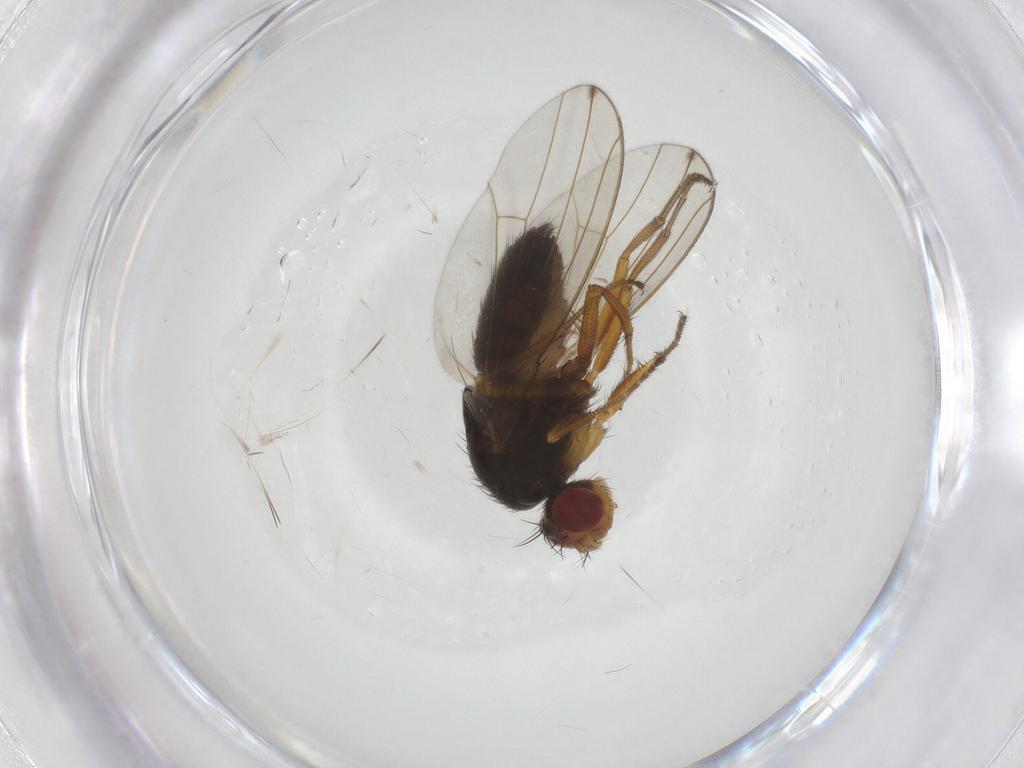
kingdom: Animalia
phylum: Arthropoda
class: Insecta
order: Diptera
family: Drosophilidae
